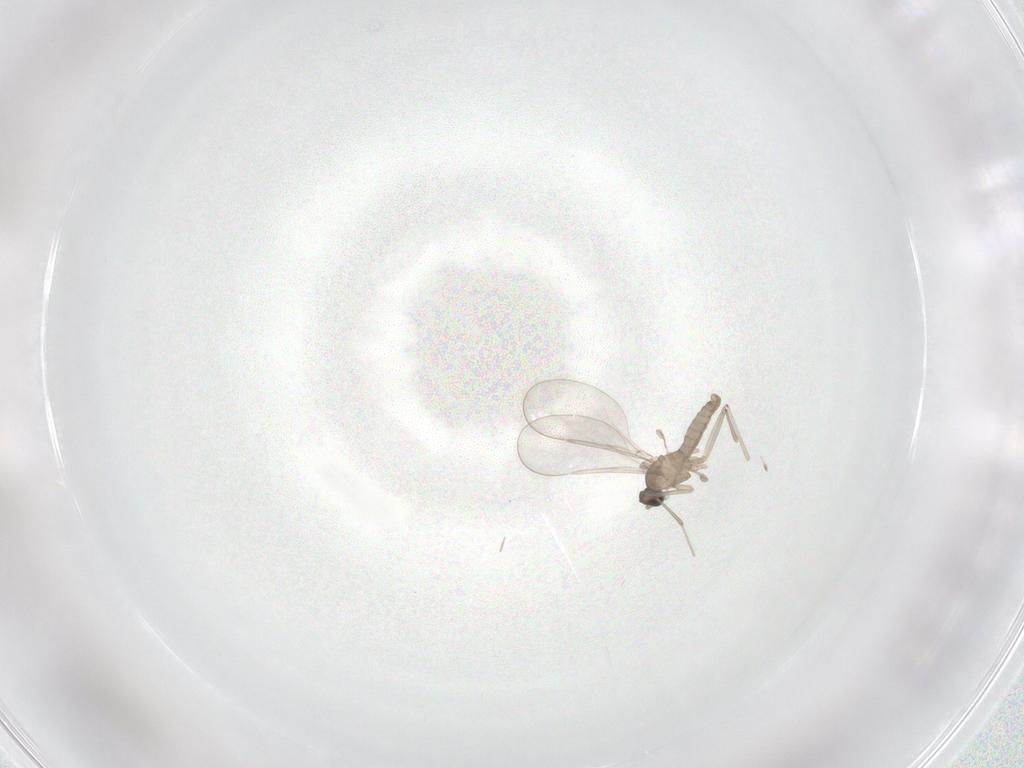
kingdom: Animalia
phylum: Arthropoda
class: Insecta
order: Diptera
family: Cecidomyiidae
